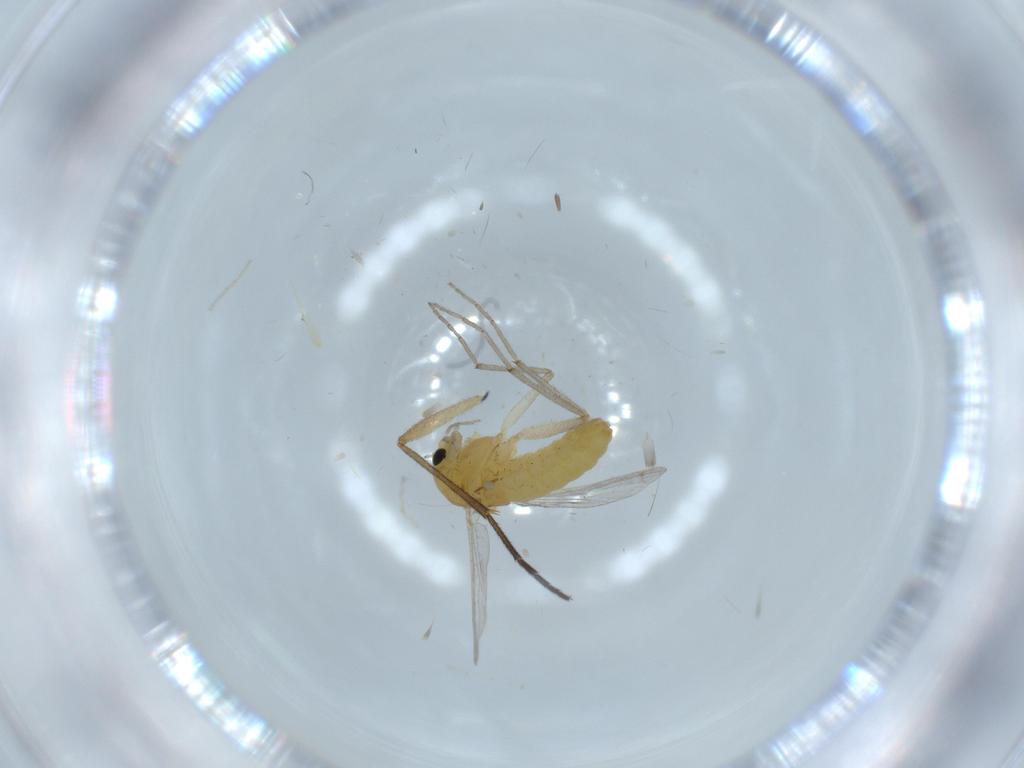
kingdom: Animalia
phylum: Arthropoda
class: Insecta
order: Diptera
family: Chironomidae
